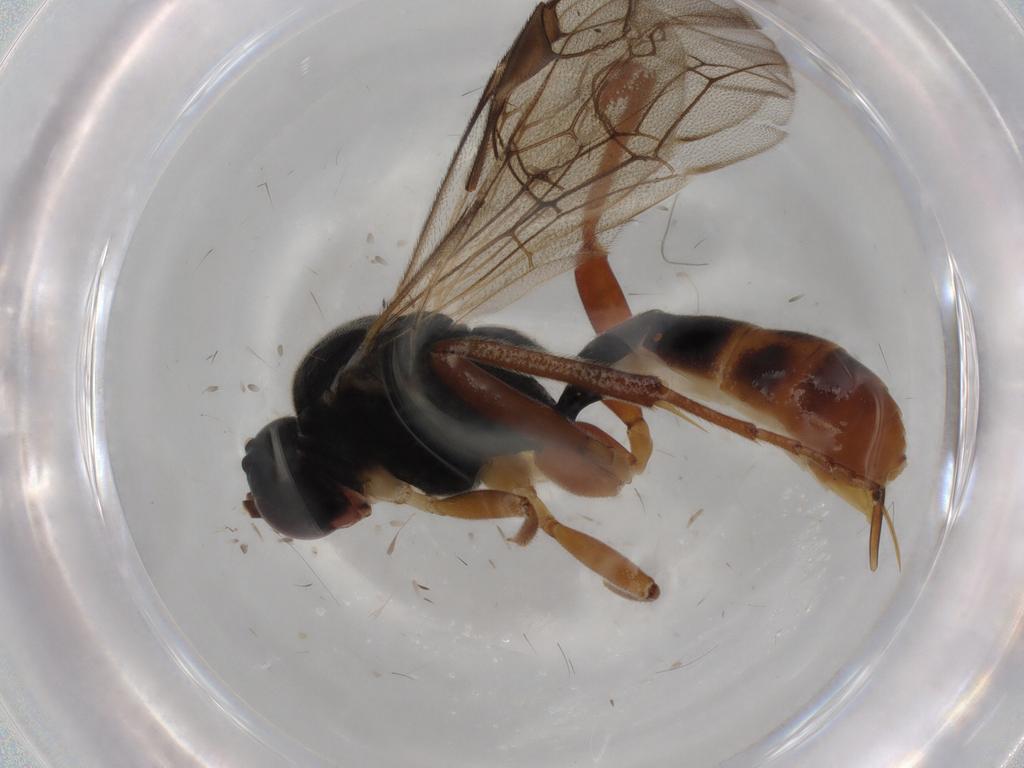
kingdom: Animalia
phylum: Arthropoda
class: Insecta
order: Hymenoptera
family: Ichneumonidae
